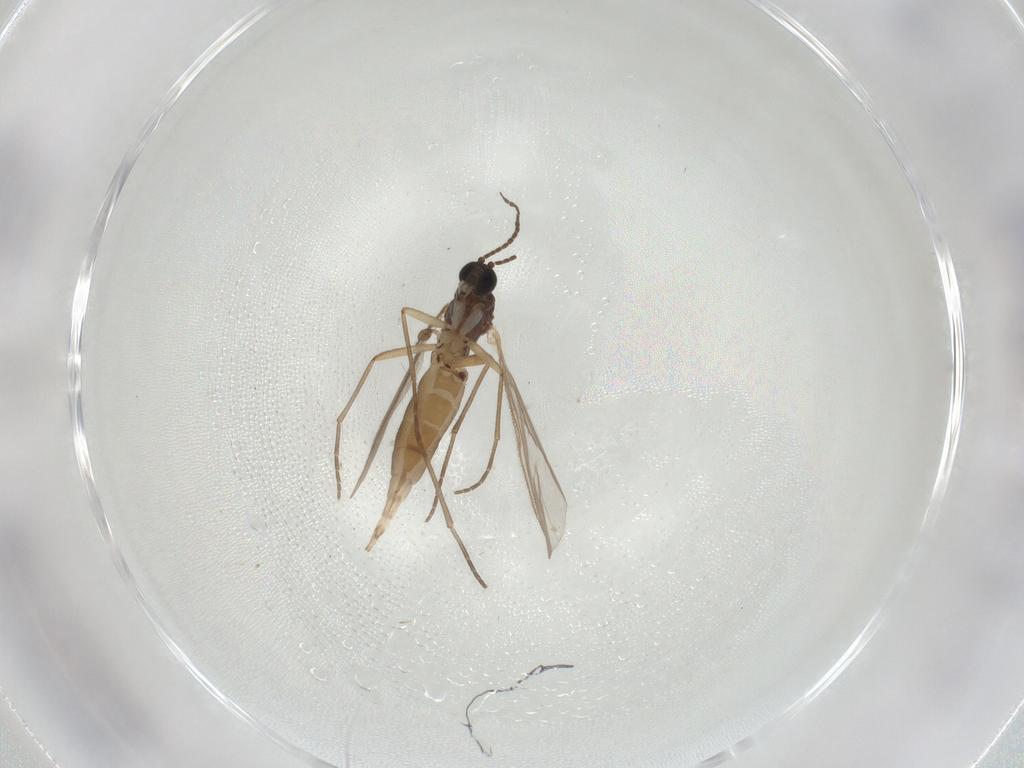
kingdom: Animalia
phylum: Arthropoda
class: Insecta
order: Diptera
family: Sciaridae
